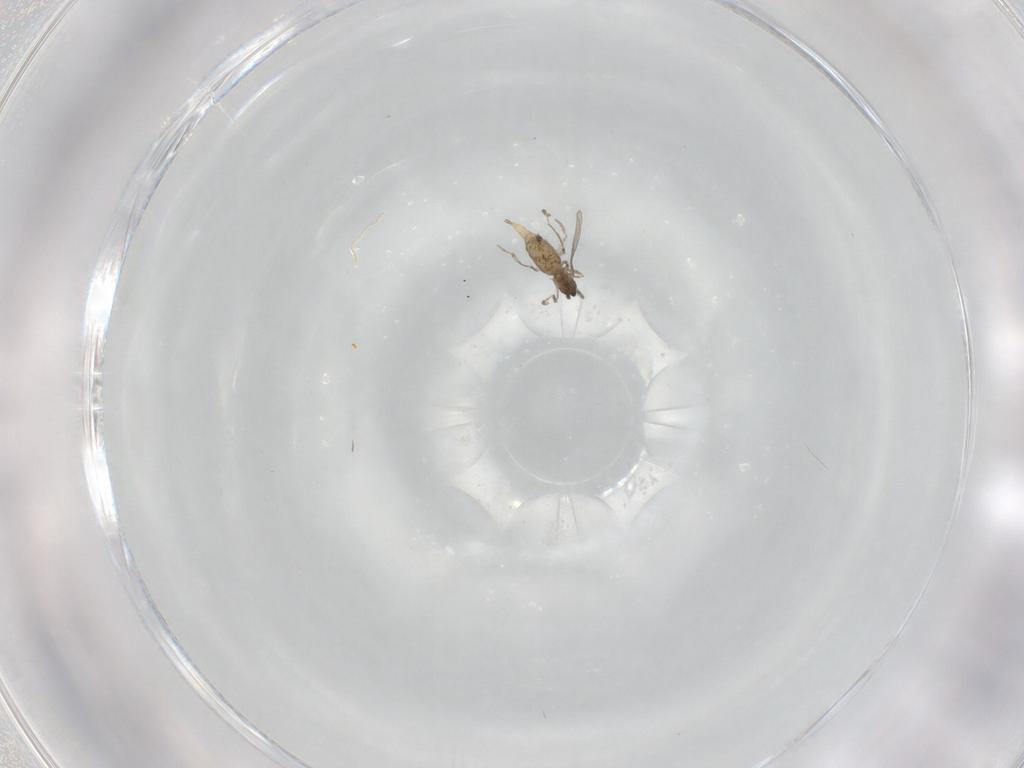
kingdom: Animalia
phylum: Arthropoda
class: Insecta
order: Diptera
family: Cecidomyiidae
